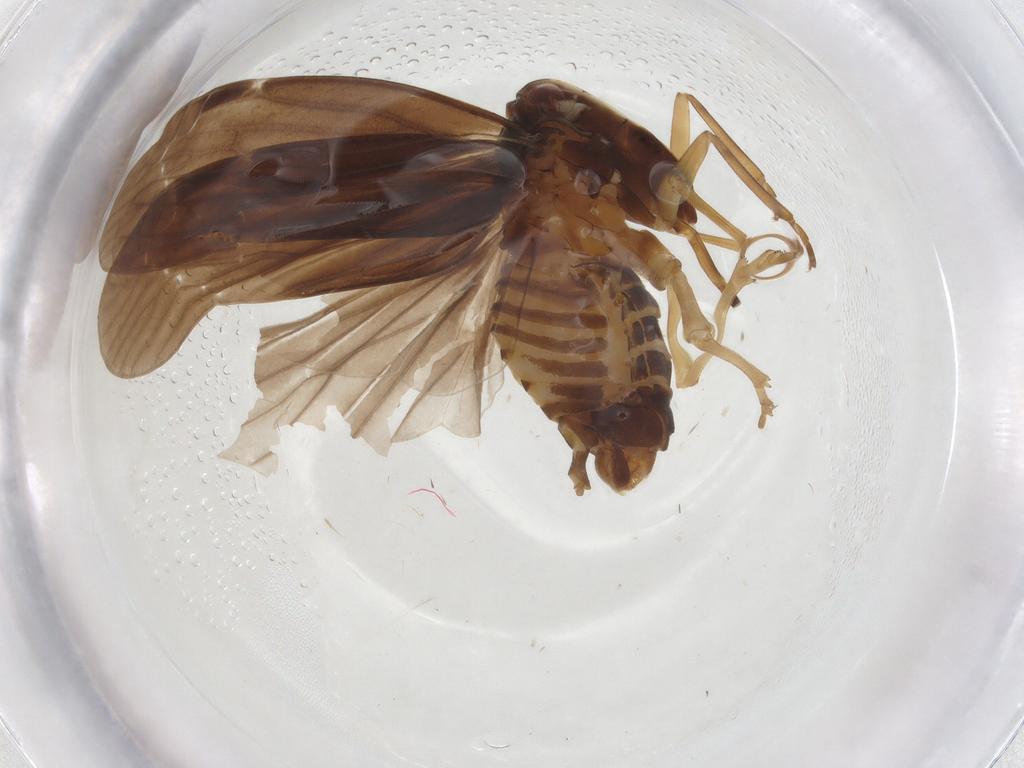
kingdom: Animalia
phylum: Arthropoda
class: Insecta
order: Hemiptera
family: Derbidae
